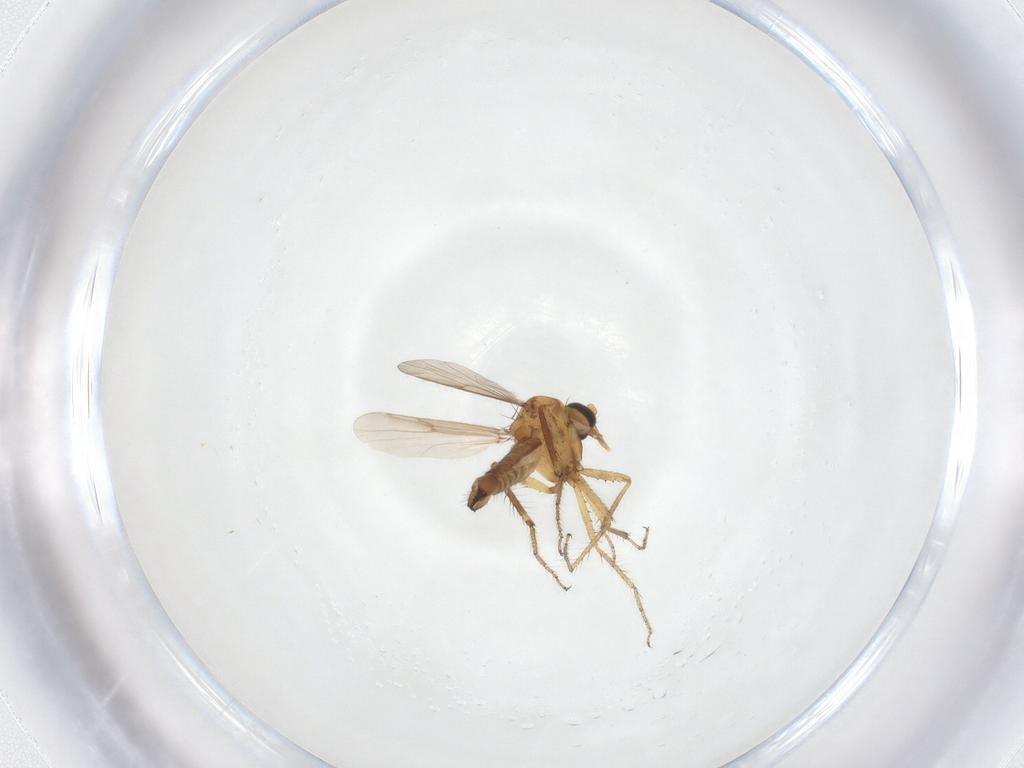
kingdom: Animalia
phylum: Arthropoda
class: Insecta
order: Diptera
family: Ceratopogonidae
